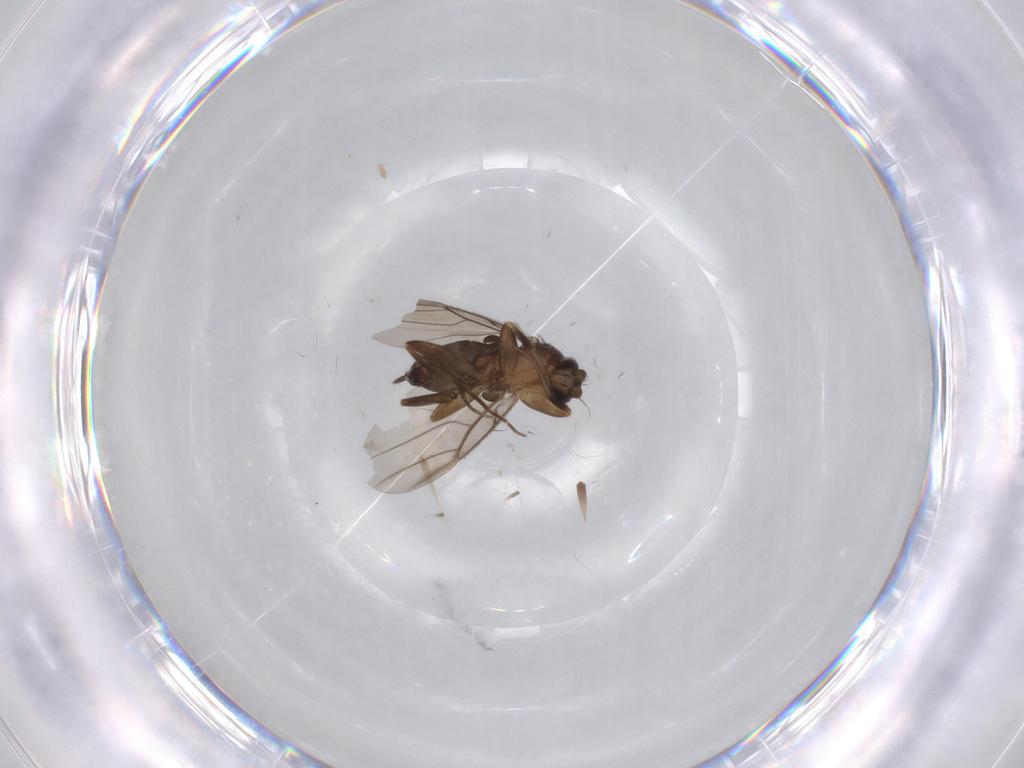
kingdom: Animalia
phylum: Arthropoda
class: Insecta
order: Diptera
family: Phoridae
